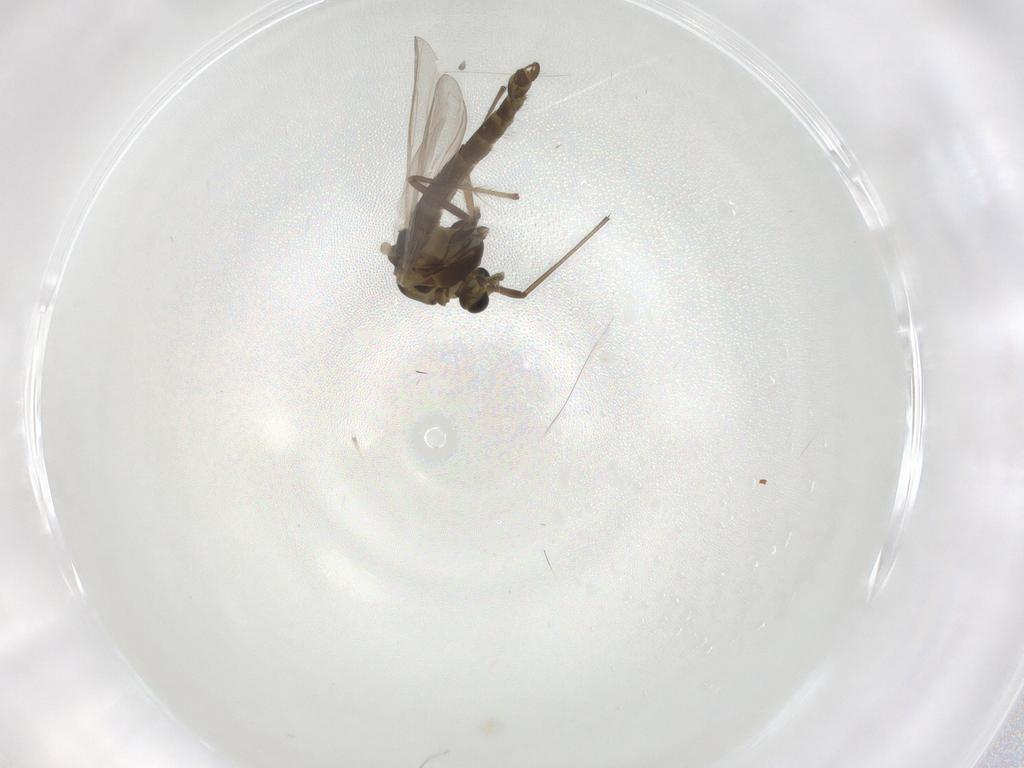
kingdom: Animalia
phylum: Arthropoda
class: Insecta
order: Diptera
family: Chironomidae
